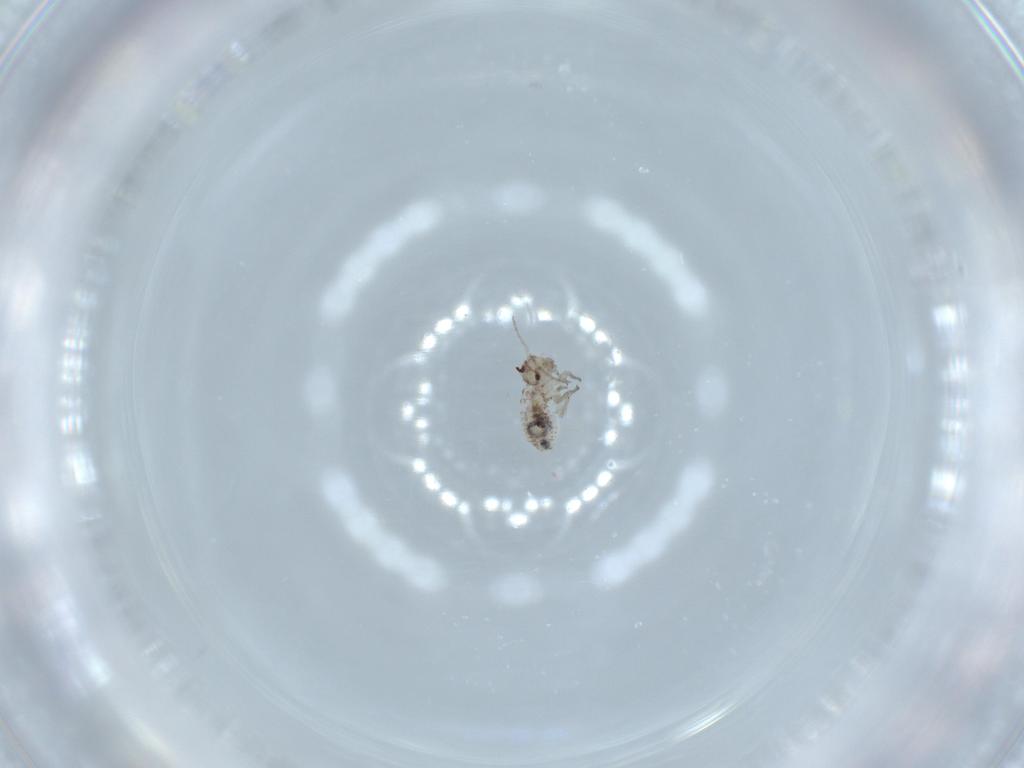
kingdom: Animalia
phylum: Arthropoda
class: Insecta
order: Psocodea
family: Psocidae
